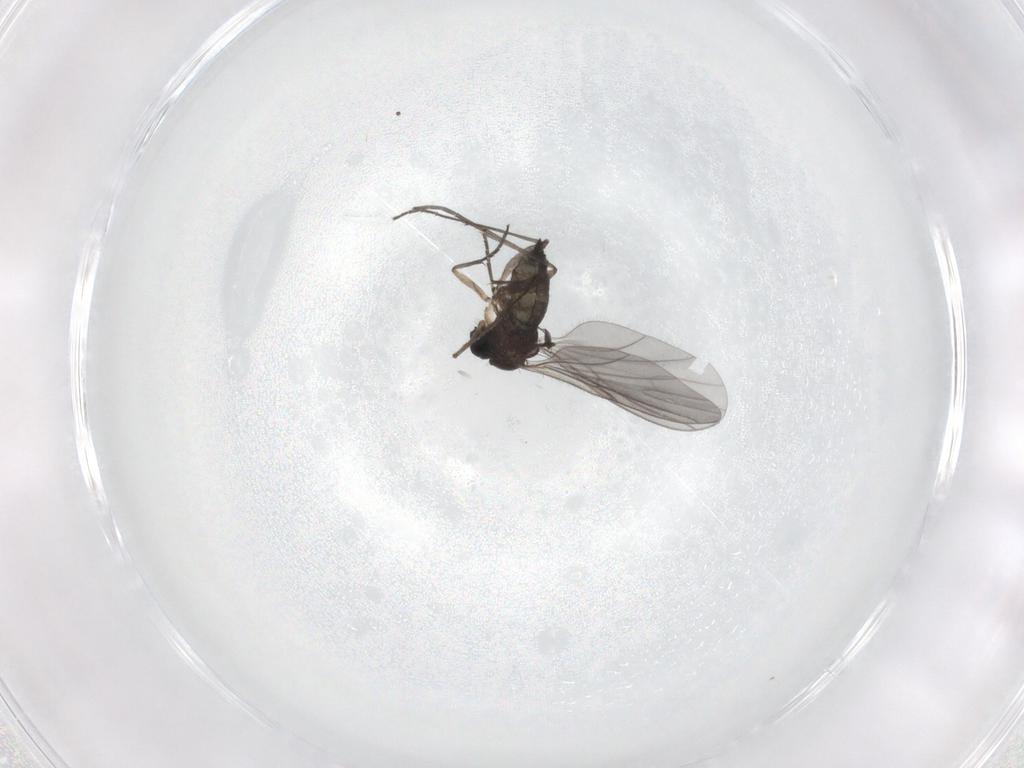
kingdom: Animalia
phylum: Arthropoda
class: Insecta
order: Diptera
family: Sciaridae
